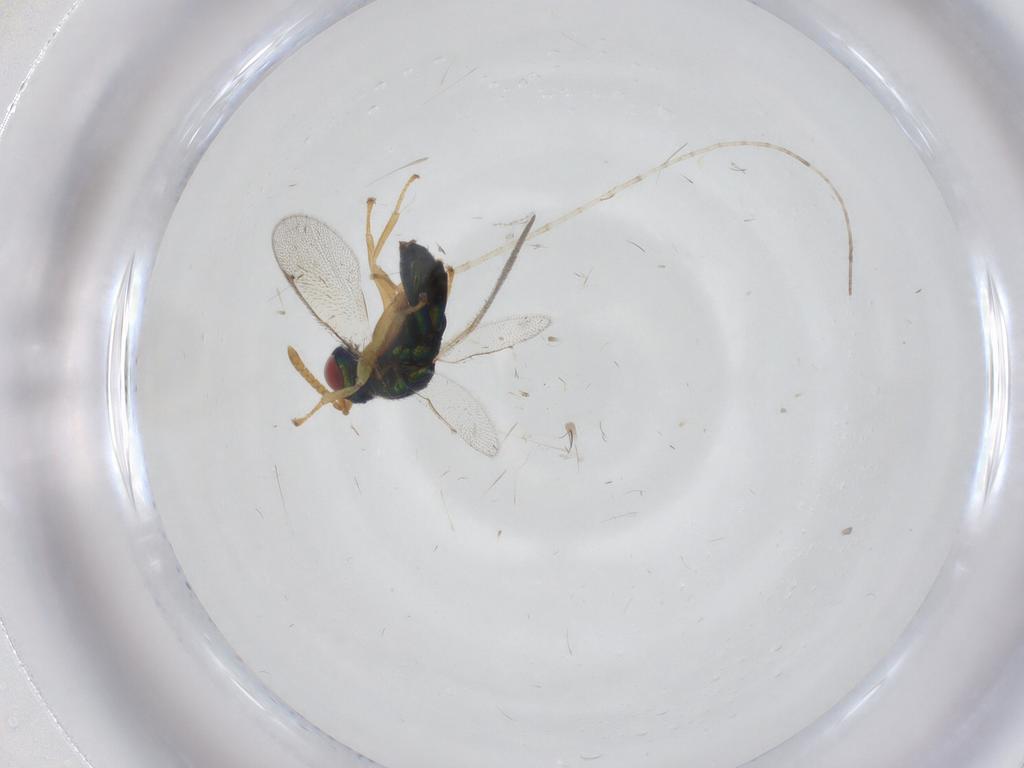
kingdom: Animalia
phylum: Arthropoda
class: Insecta
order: Hymenoptera
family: Torymidae
